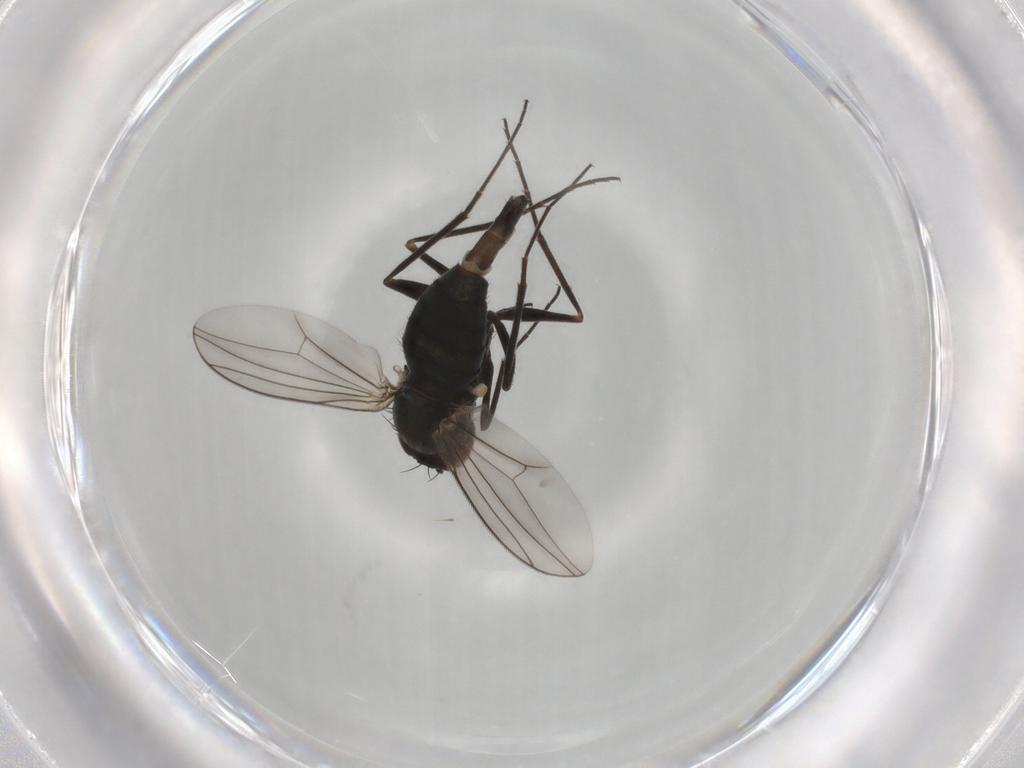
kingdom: Animalia
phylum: Arthropoda
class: Insecta
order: Diptera
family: Dolichopodidae
